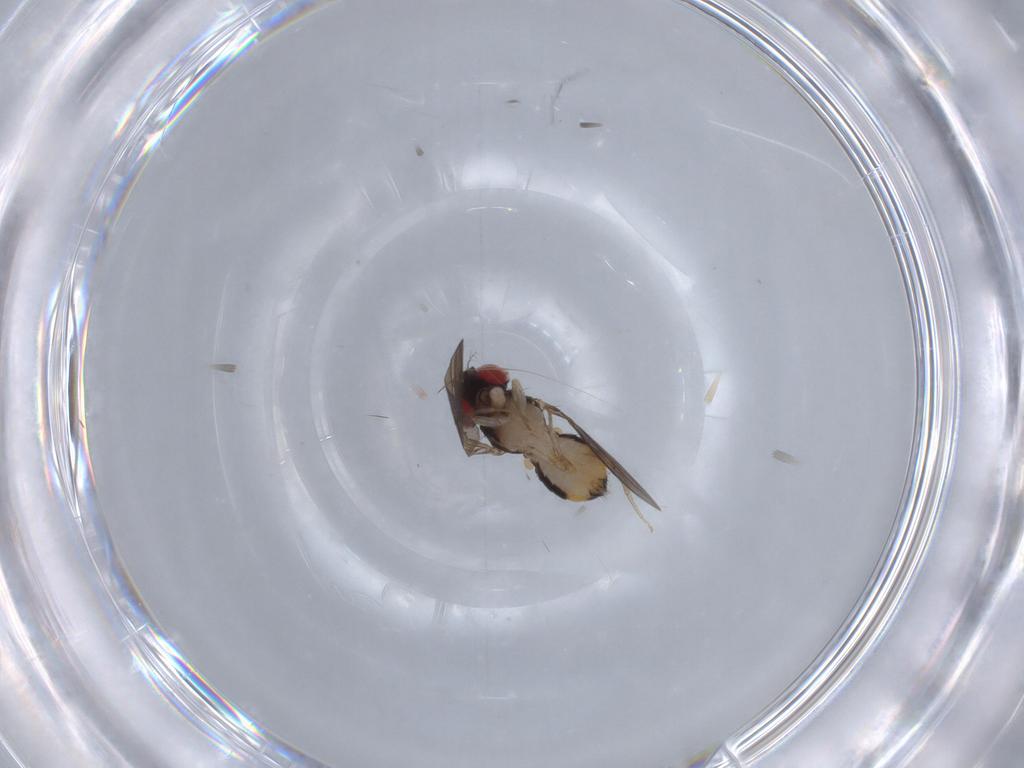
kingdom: Animalia
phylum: Arthropoda
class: Insecta
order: Diptera
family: Drosophilidae
